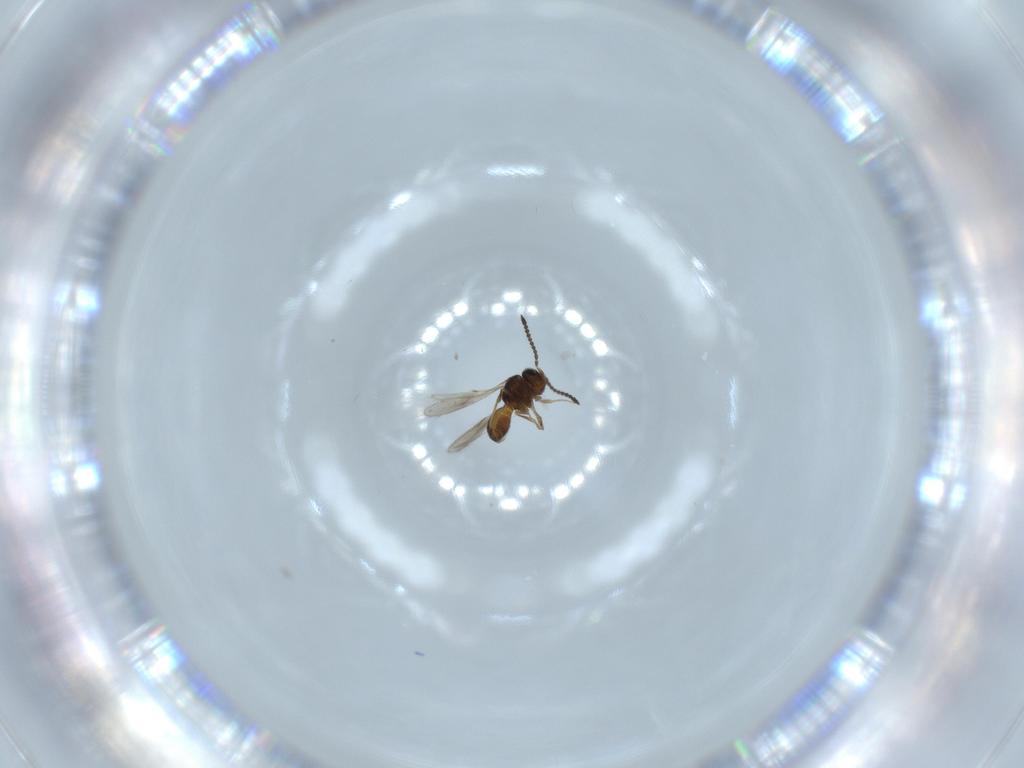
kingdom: Animalia
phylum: Arthropoda
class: Insecta
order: Hymenoptera
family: Scelionidae
